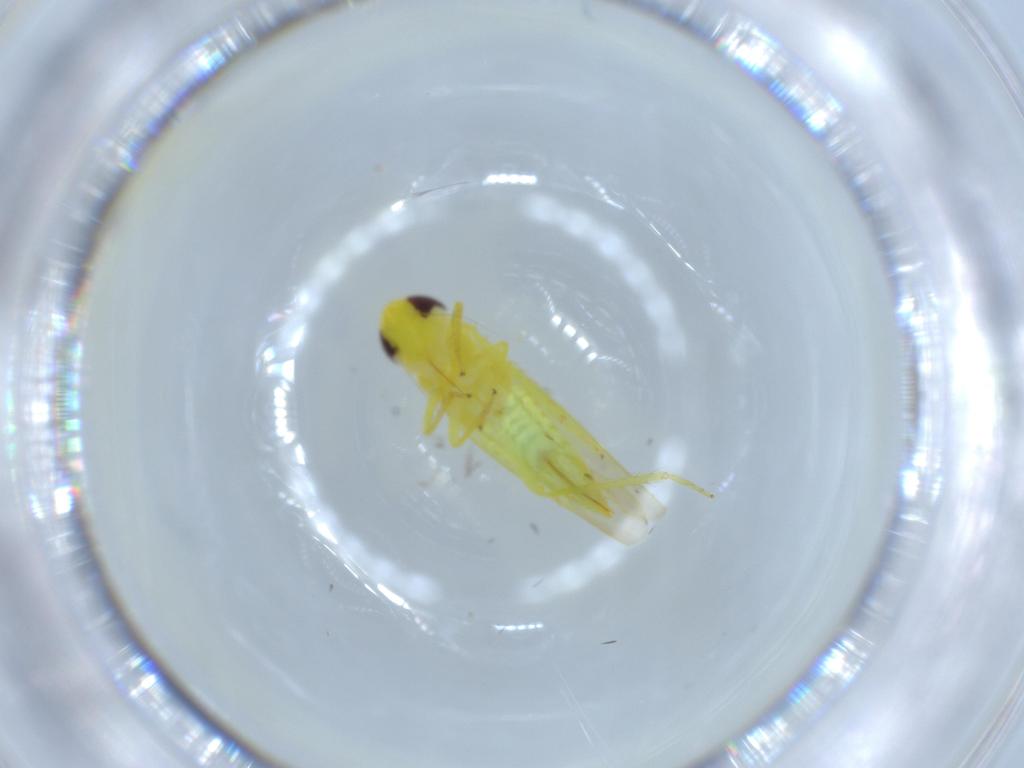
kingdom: Animalia
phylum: Arthropoda
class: Insecta
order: Hemiptera
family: Cicadellidae
